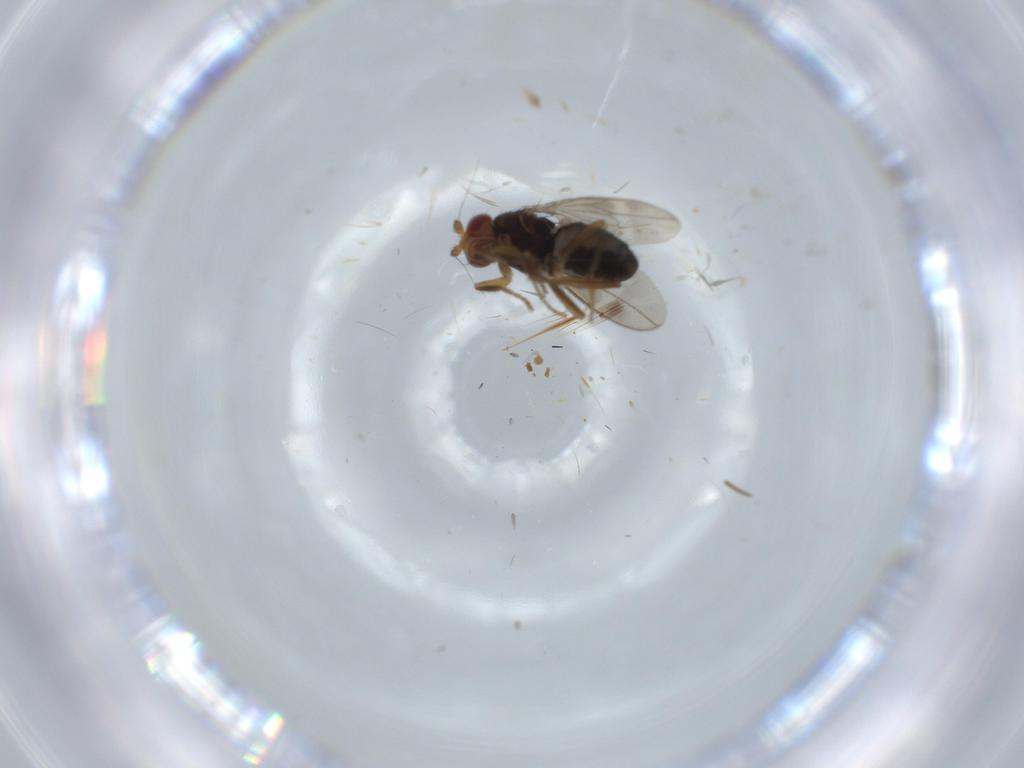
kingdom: Animalia
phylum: Arthropoda
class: Insecta
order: Diptera
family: Sphaeroceridae
